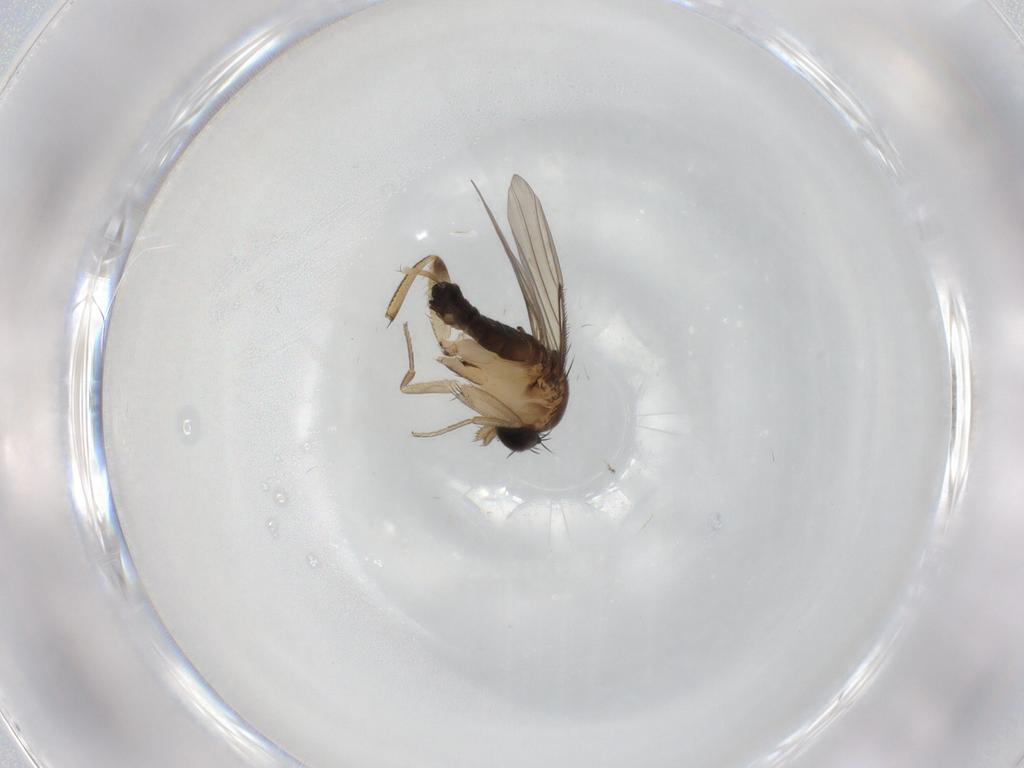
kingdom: Animalia
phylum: Arthropoda
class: Insecta
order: Diptera
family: Phoridae
